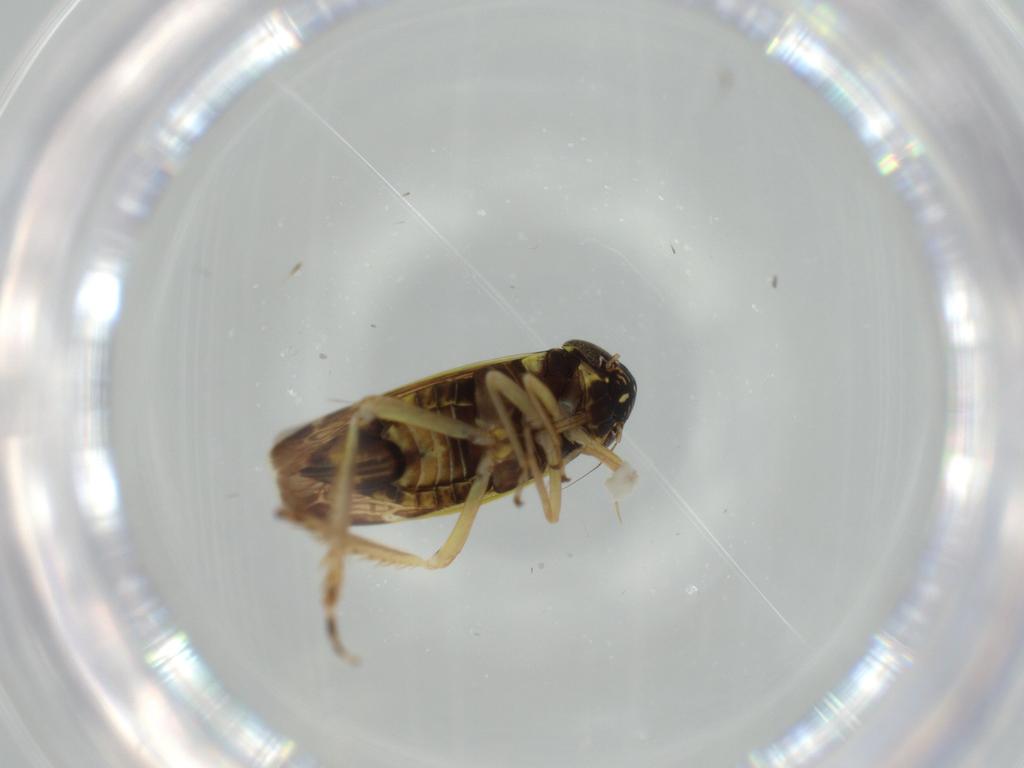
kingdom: Animalia
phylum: Arthropoda
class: Insecta
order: Hemiptera
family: Cicadellidae
